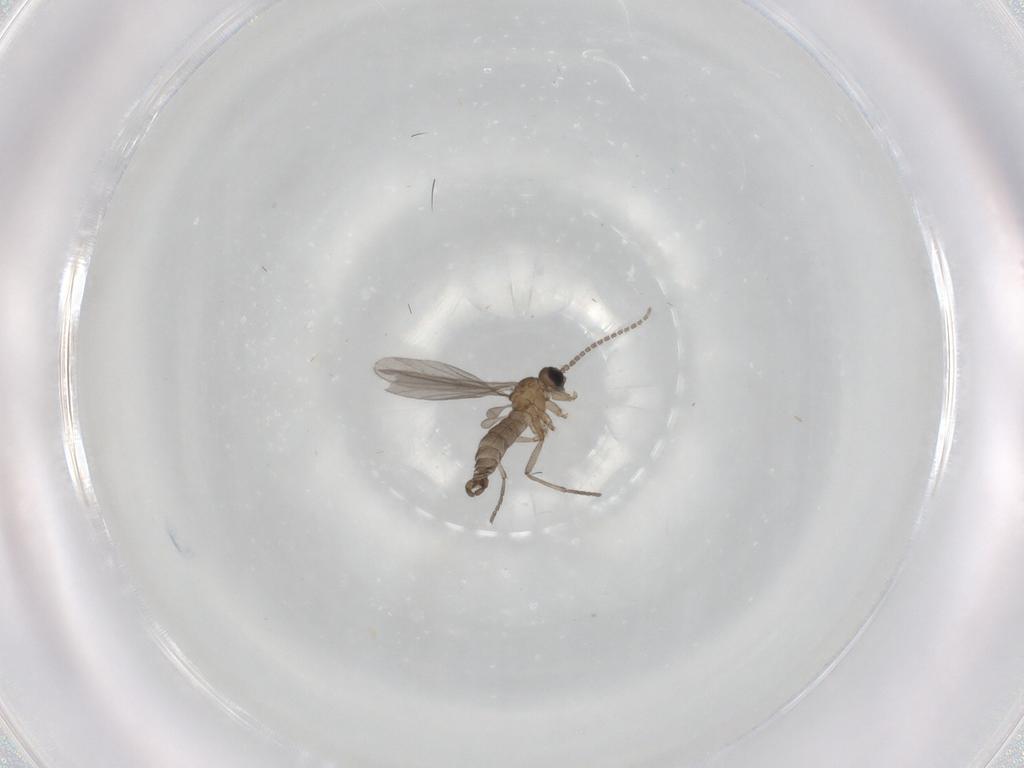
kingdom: Animalia
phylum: Arthropoda
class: Insecta
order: Diptera
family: Sciaridae
